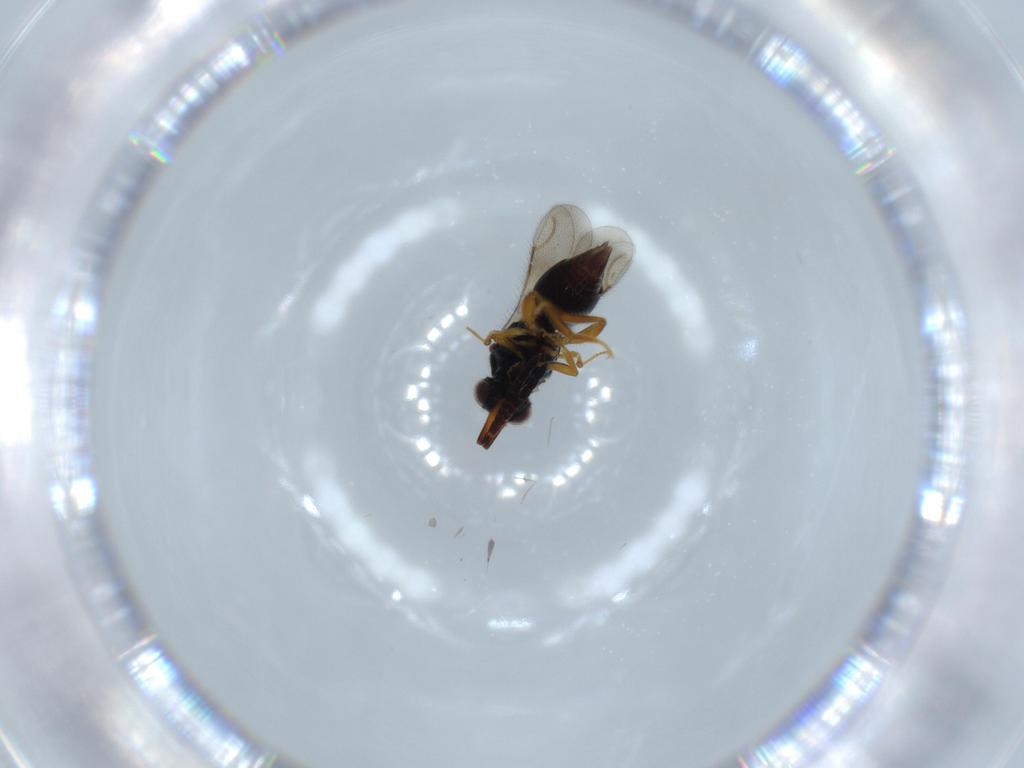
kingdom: Animalia
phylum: Arthropoda
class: Insecta
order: Hymenoptera
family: Ceraphronidae
